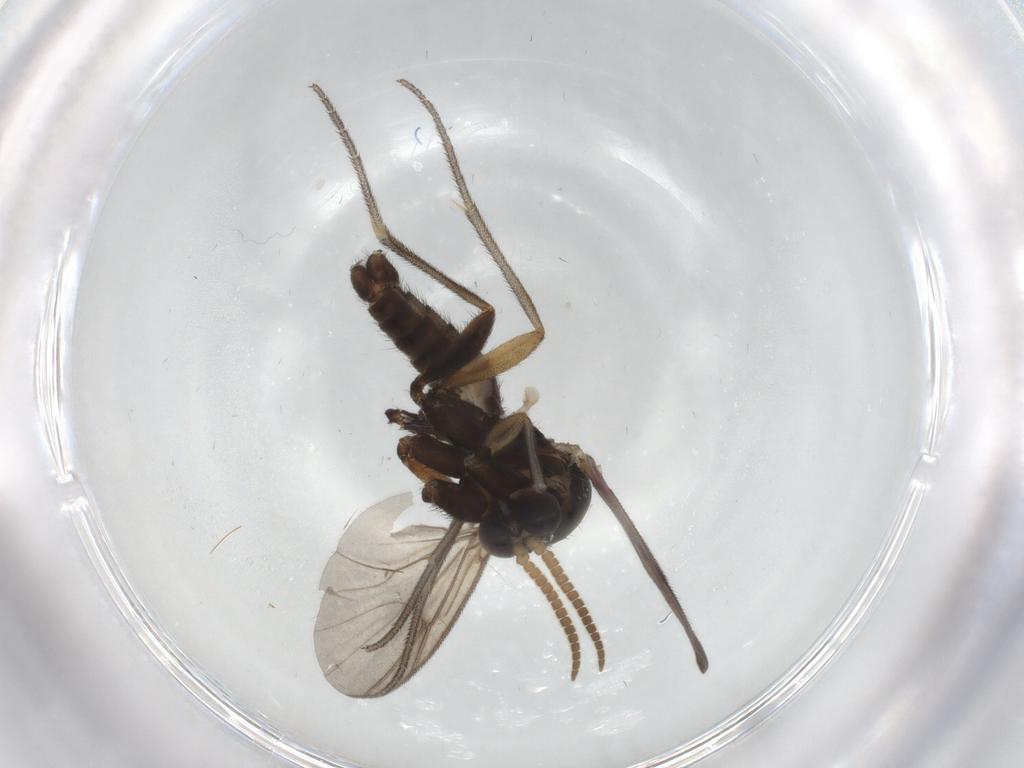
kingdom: Animalia
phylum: Arthropoda
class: Insecta
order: Diptera
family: Mycetophilidae
